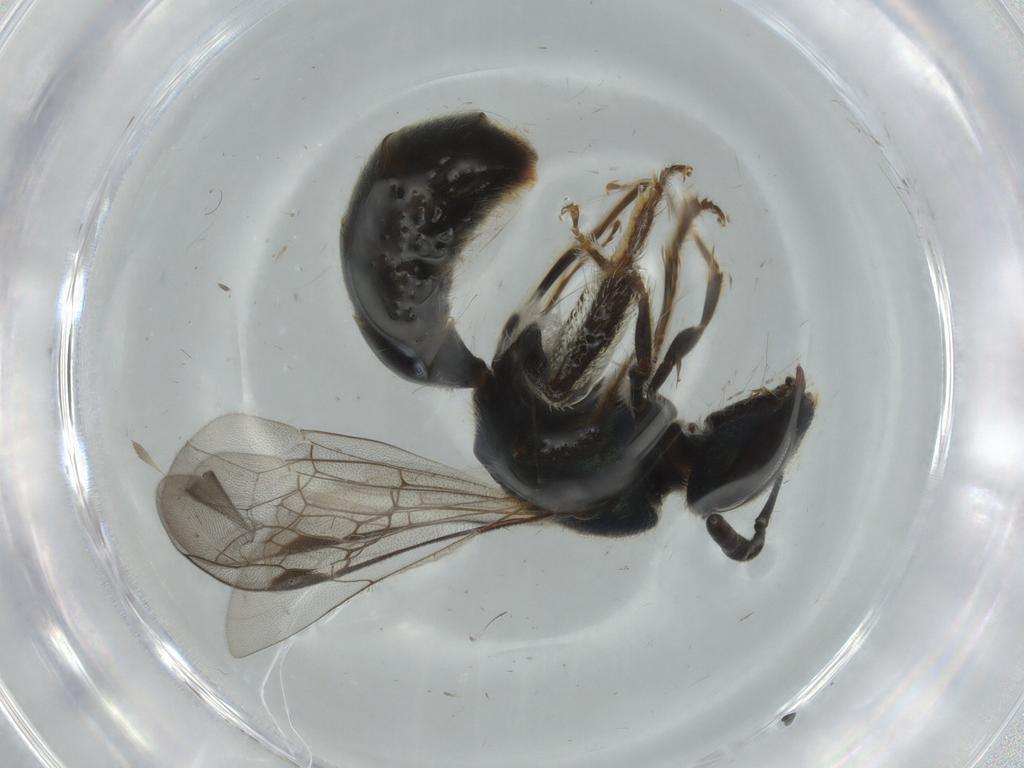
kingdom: Animalia
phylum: Arthropoda
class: Insecta
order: Hymenoptera
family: Halictidae
